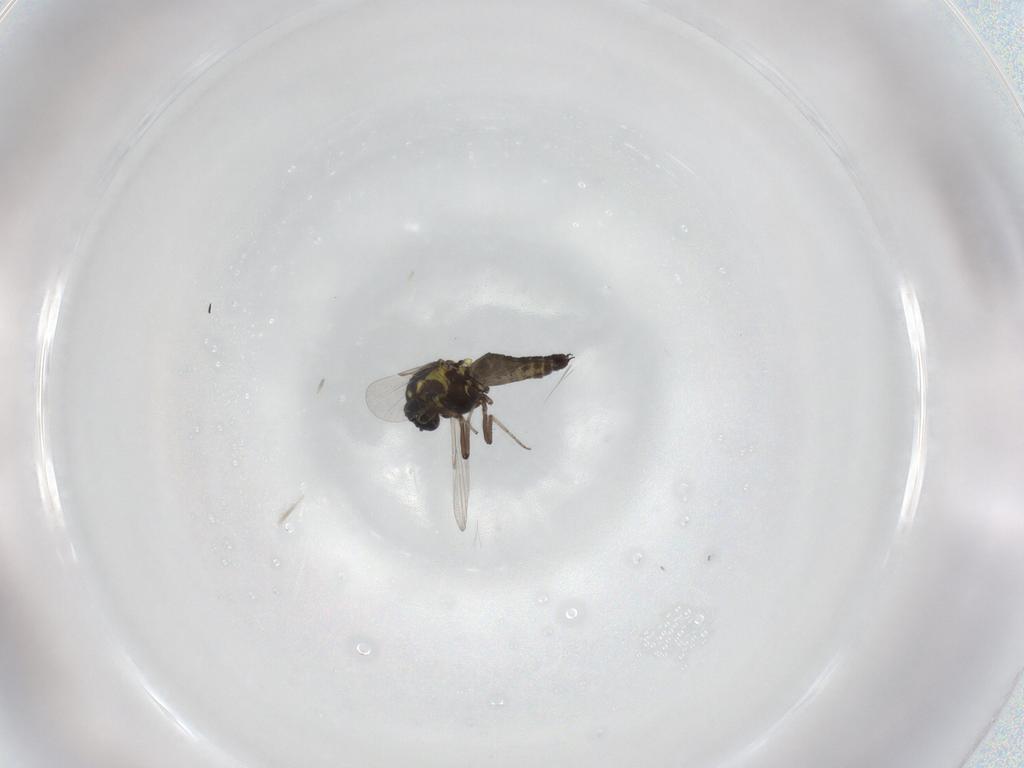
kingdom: Animalia
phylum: Arthropoda
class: Insecta
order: Diptera
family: Ceratopogonidae
